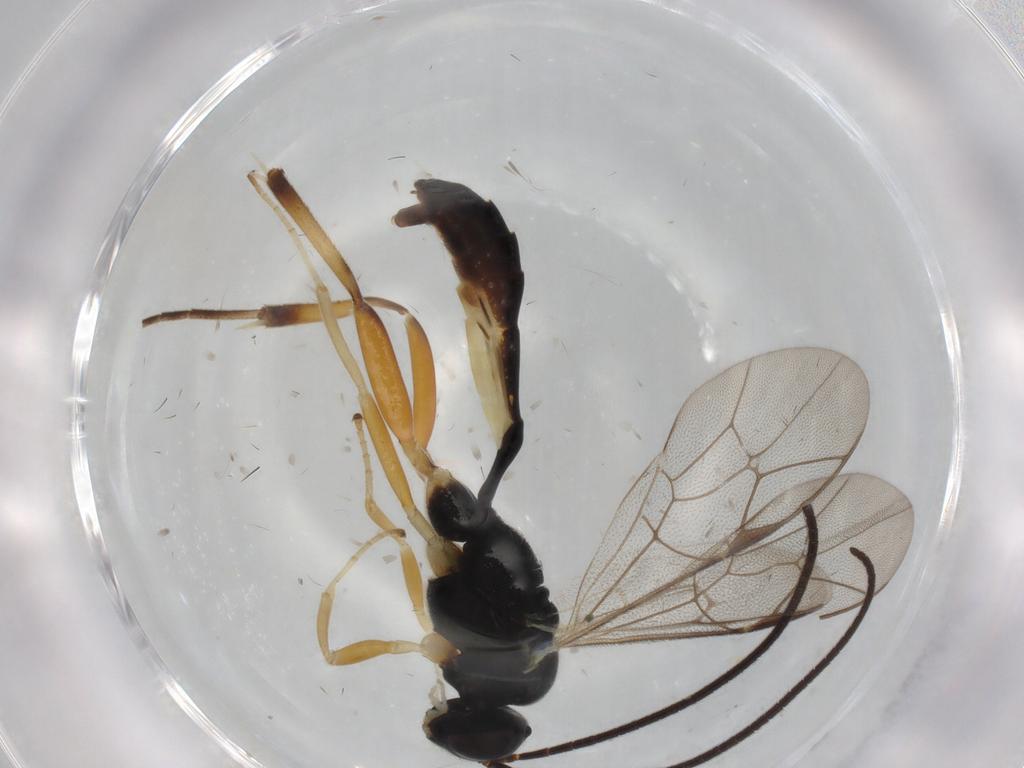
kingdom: Animalia
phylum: Arthropoda
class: Insecta
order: Hymenoptera
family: Ichneumonidae
